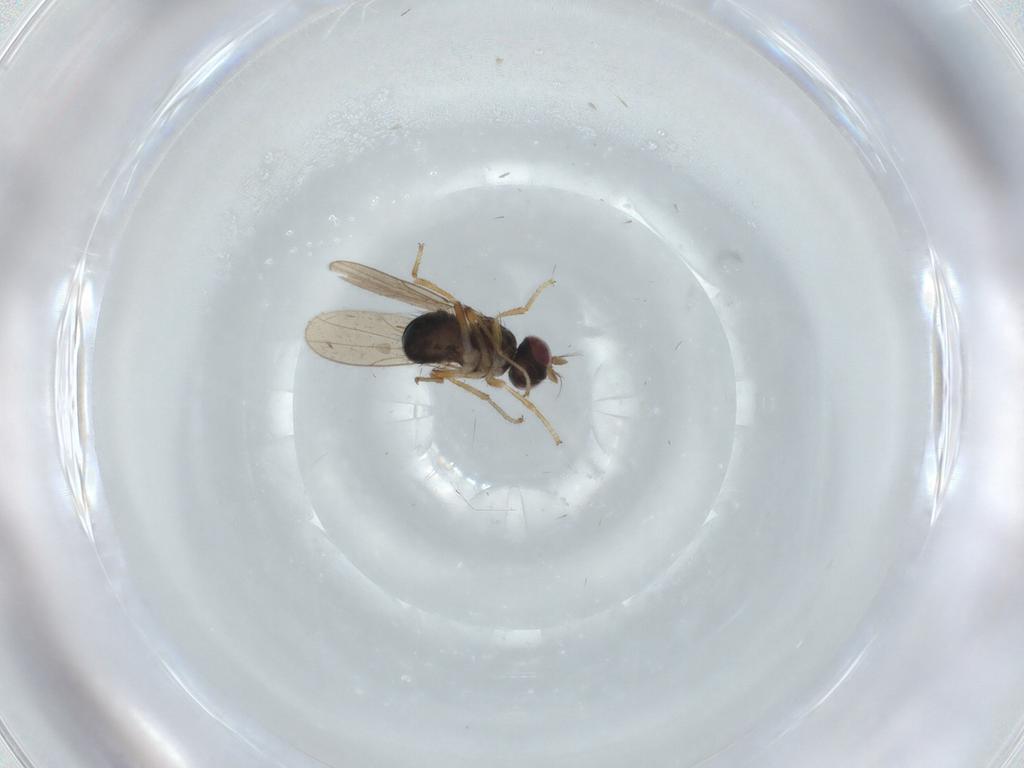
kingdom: Animalia
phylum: Arthropoda
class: Insecta
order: Diptera
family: Ephydridae
